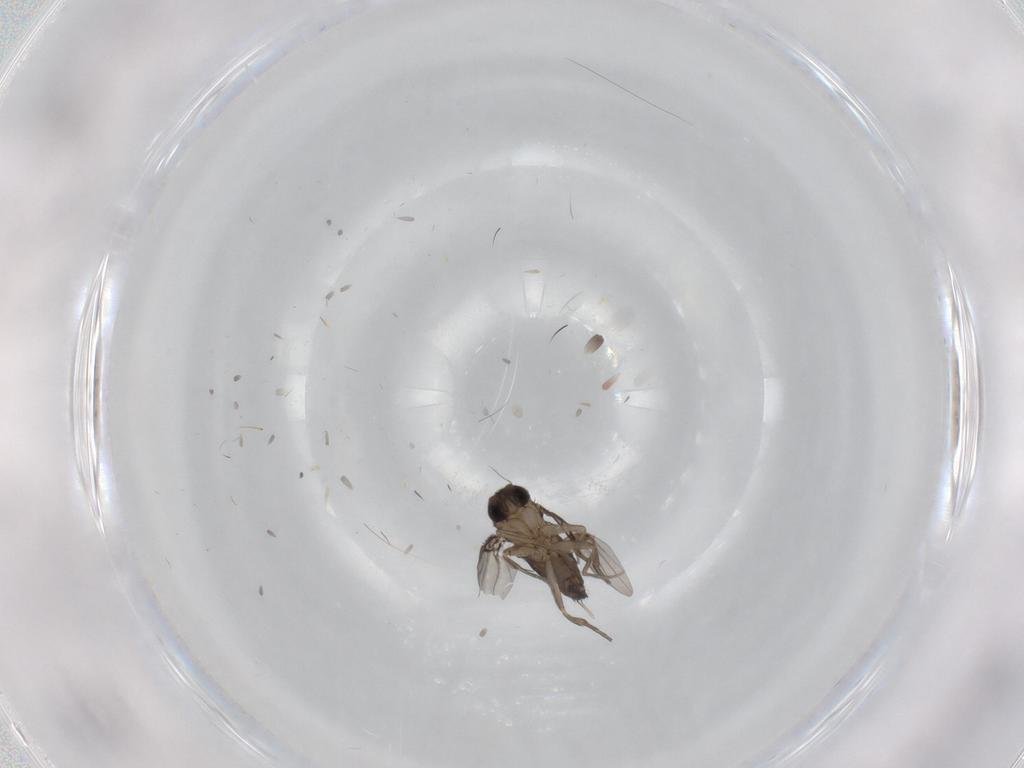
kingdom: Animalia
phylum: Arthropoda
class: Insecta
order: Diptera
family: Phoridae
